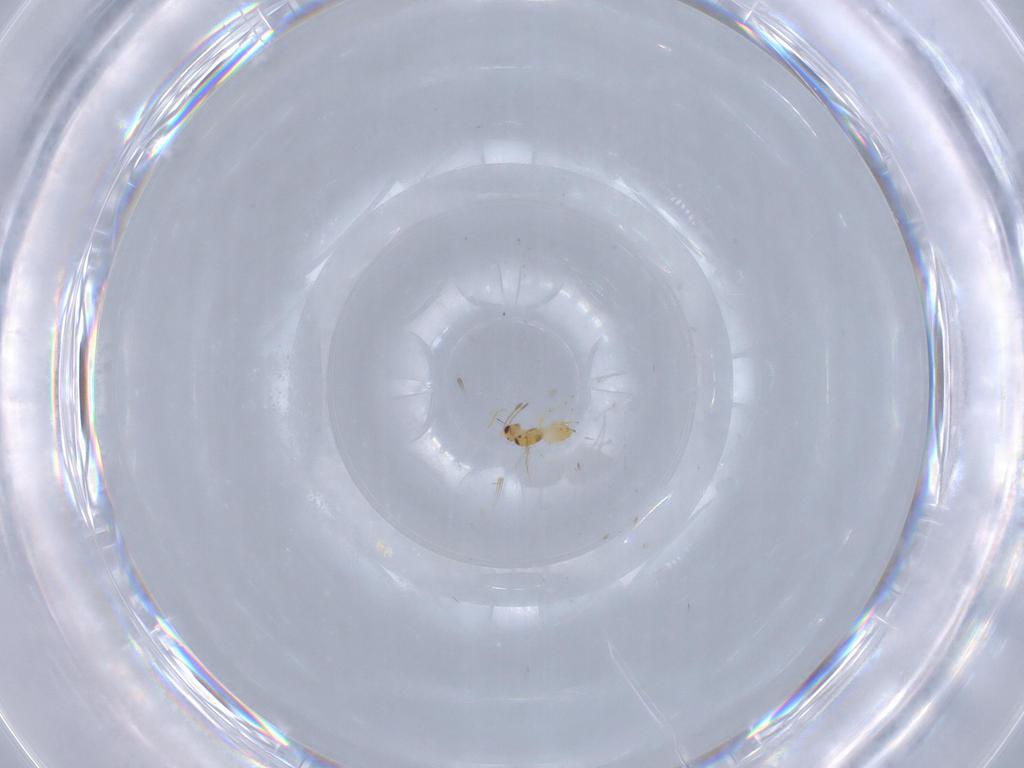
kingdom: Animalia
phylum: Arthropoda
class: Insecta
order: Hymenoptera
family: Mymaridae
